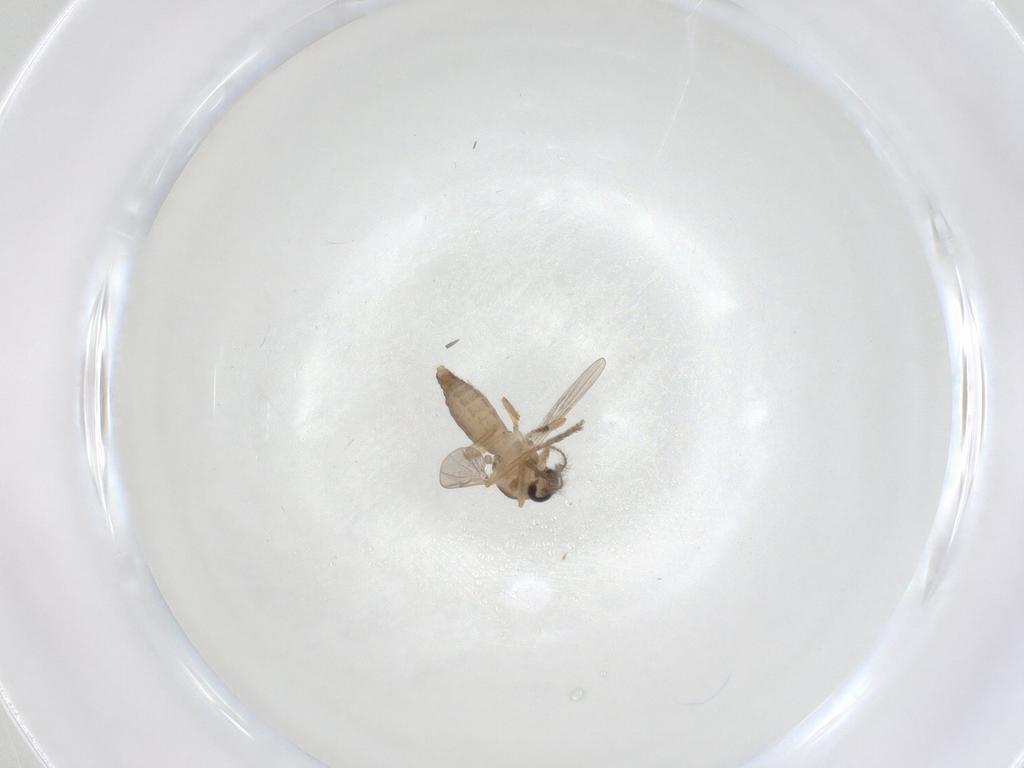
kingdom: Animalia
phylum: Arthropoda
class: Insecta
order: Diptera
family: Ceratopogonidae
